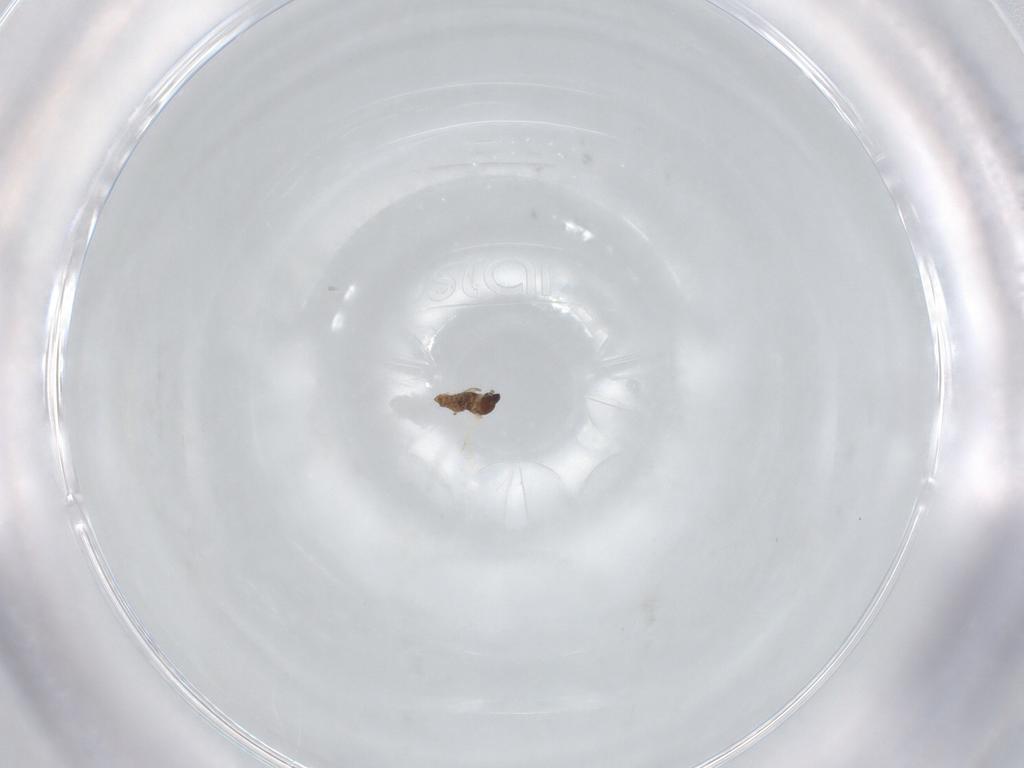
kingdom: Animalia
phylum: Arthropoda
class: Insecta
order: Diptera
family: Cecidomyiidae
